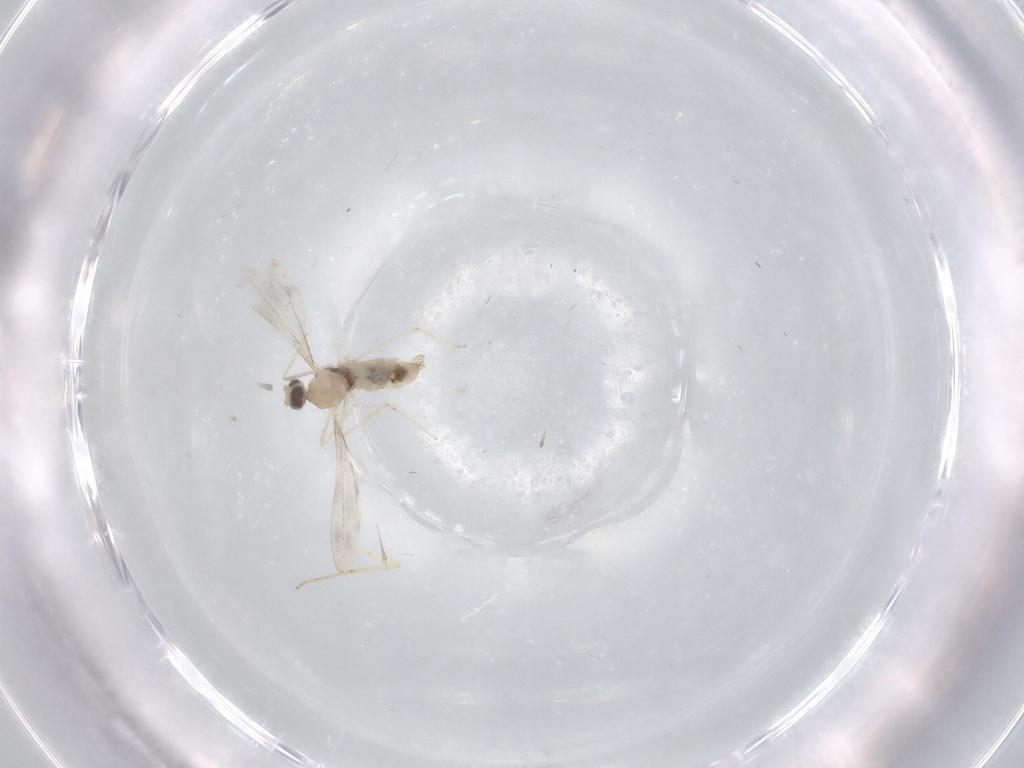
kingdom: Animalia
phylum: Arthropoda
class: Insecta
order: Diptera
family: Cecidomyiidae
